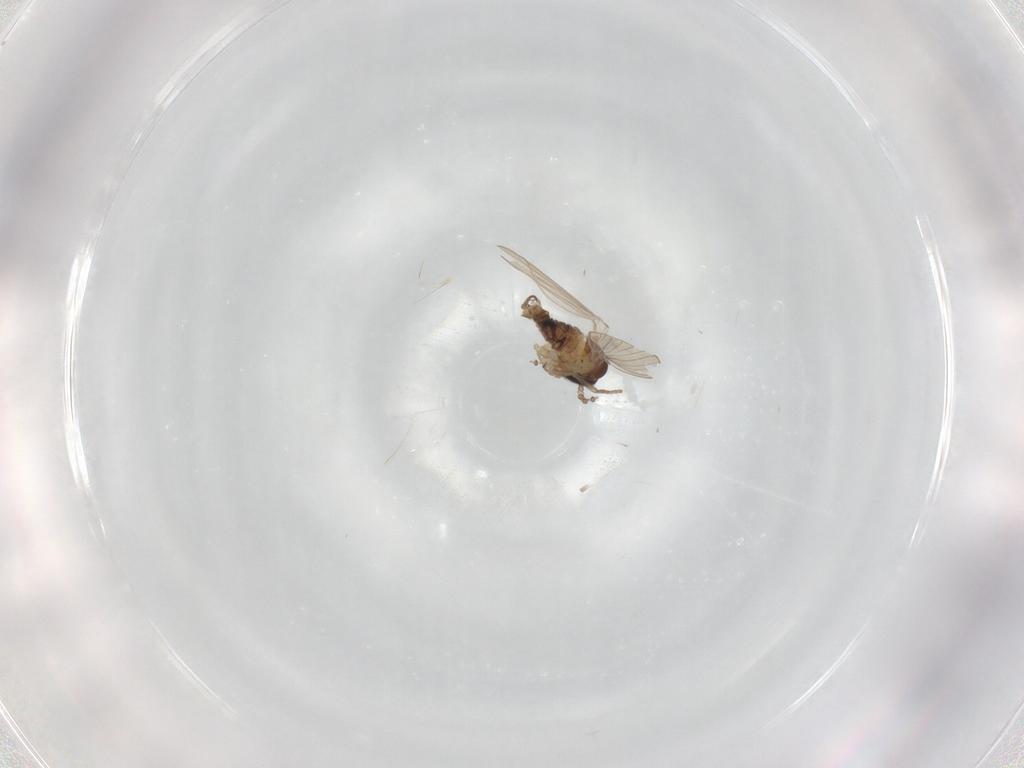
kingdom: Animalia
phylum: Arthropoda
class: Insecta
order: Diptera
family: Psychodidae
